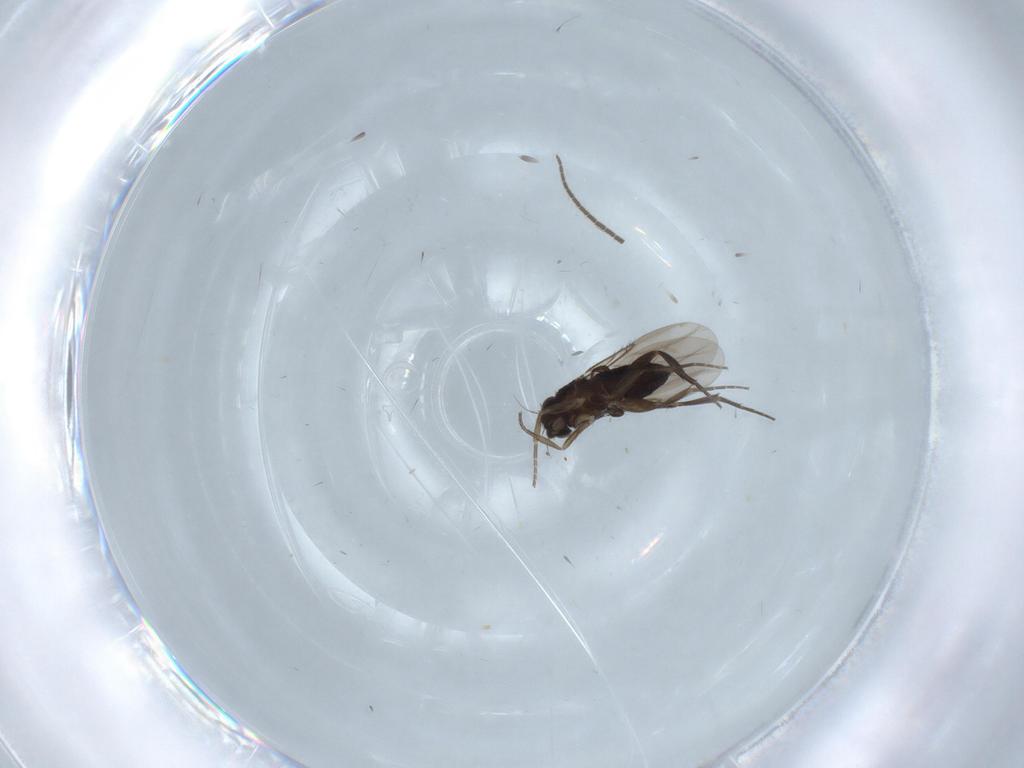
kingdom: Animalia
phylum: Arthropoda
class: Insecta
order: Diptera
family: Phoridae
